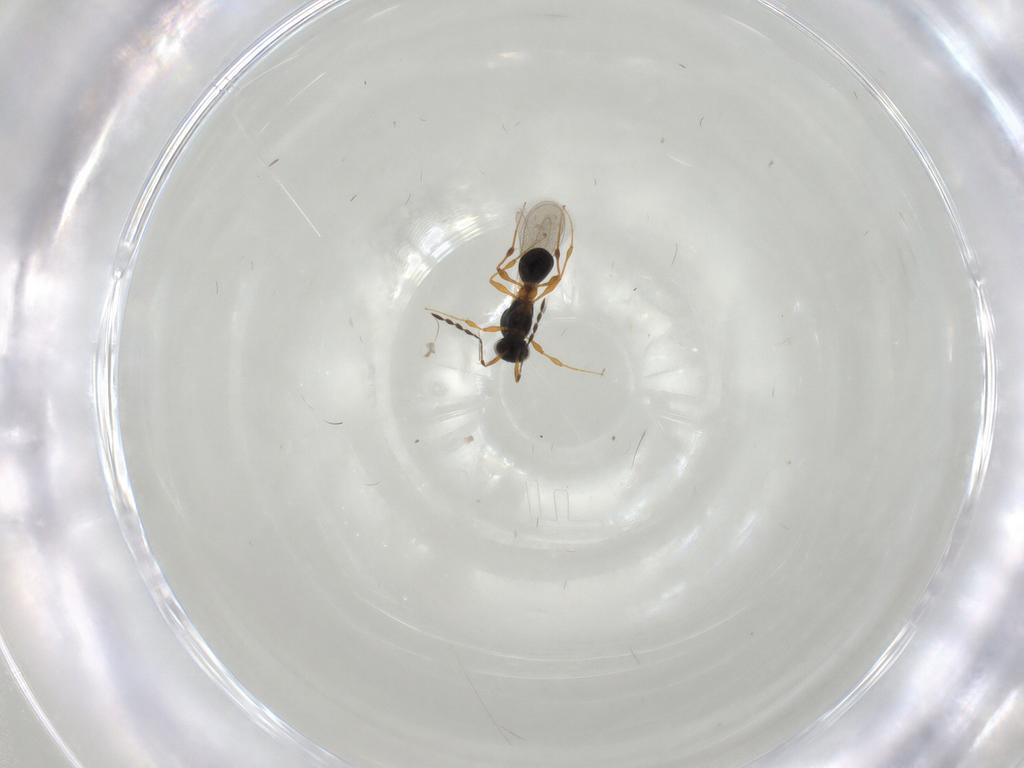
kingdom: Animalia
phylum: Arthropoda
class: Insecta
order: Hymenoptera
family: Platygastridae
